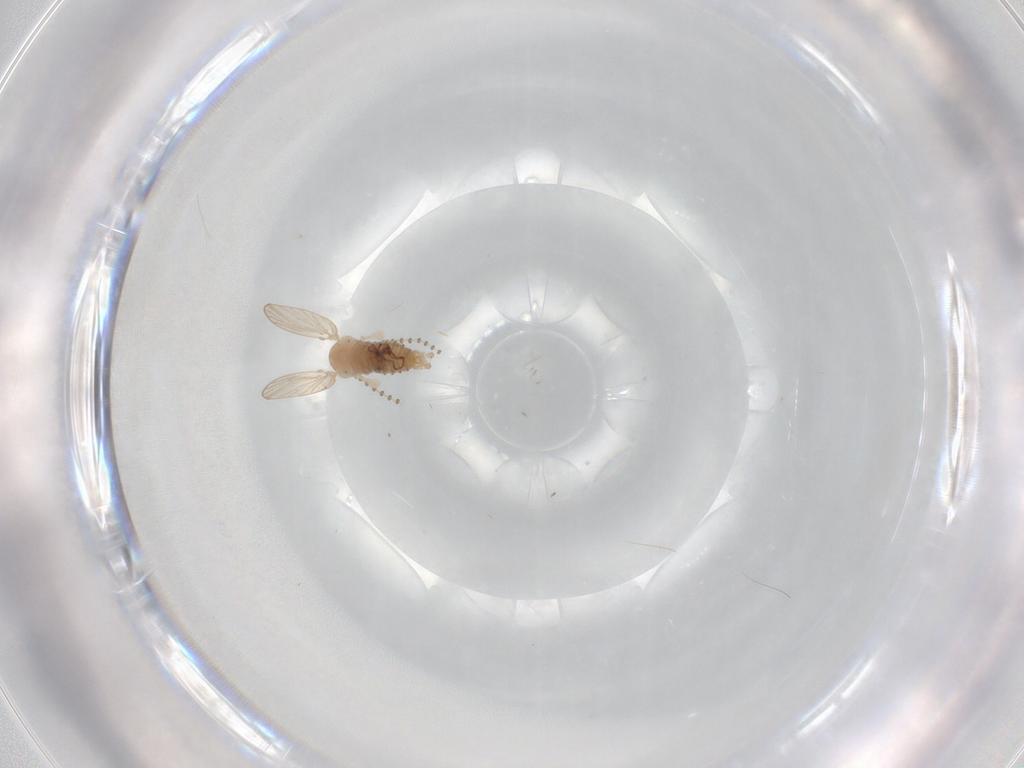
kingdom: Animalia
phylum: Arthropoda
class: Insecta
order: Diptera
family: Psychodidae
